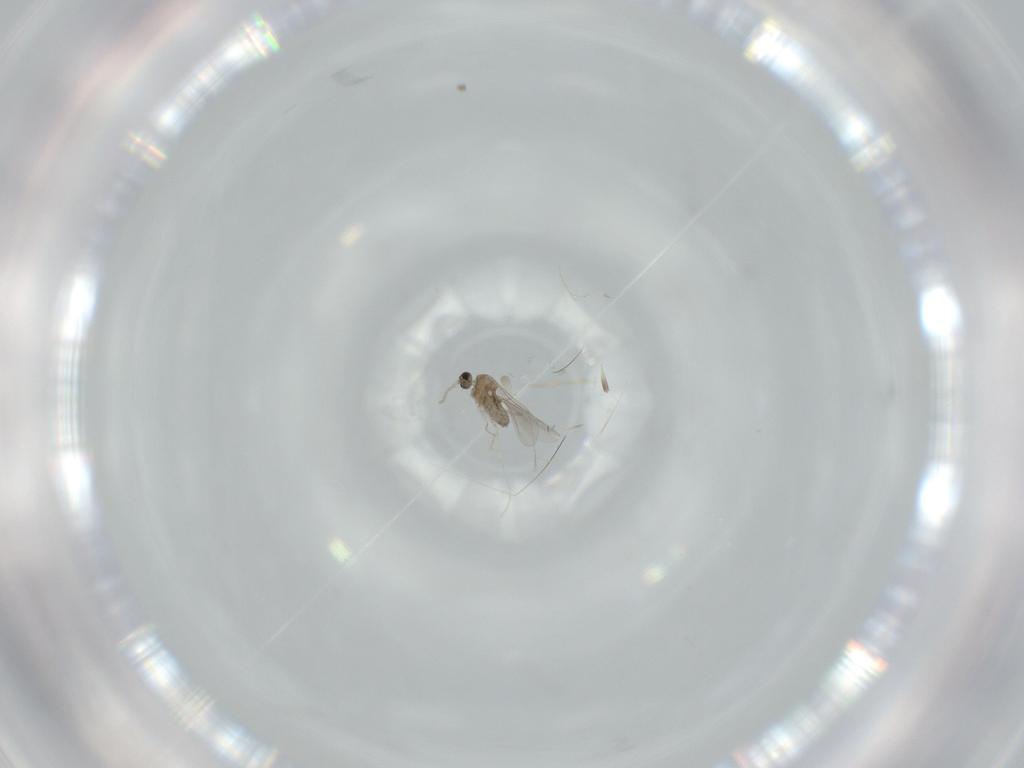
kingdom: Animalia
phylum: Arthropoda
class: Insecta
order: Diptera
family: Cecidomyiidae
